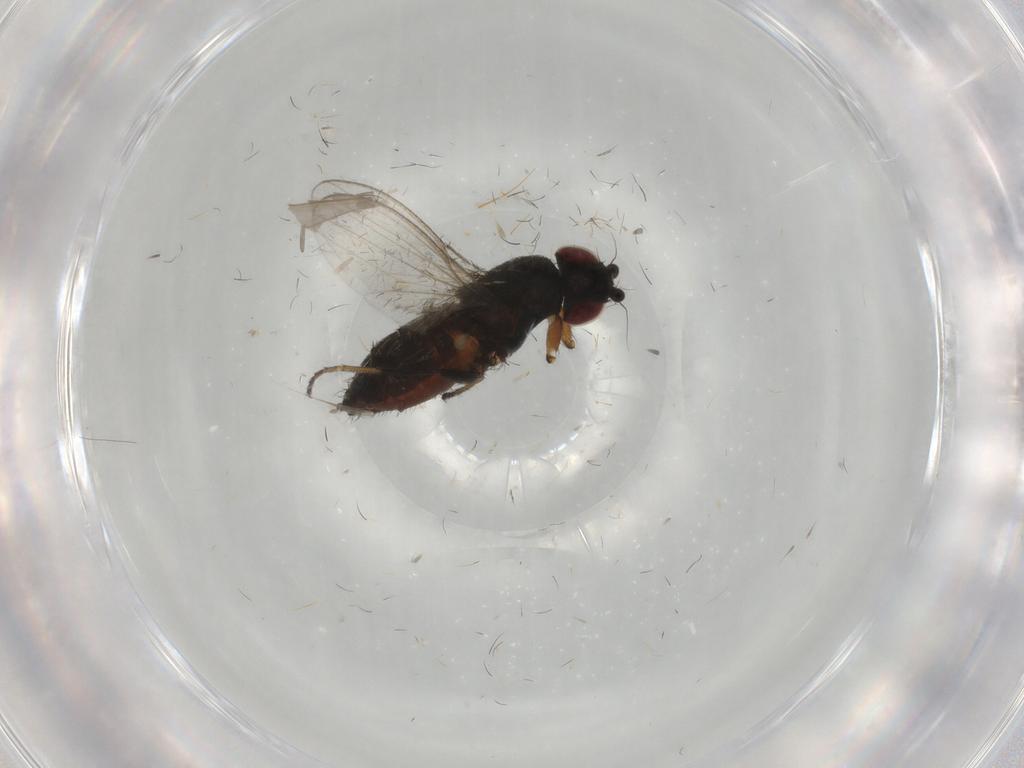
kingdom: Animalia
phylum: Arthropoda
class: Insecta
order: Diptera
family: Milichiidae
